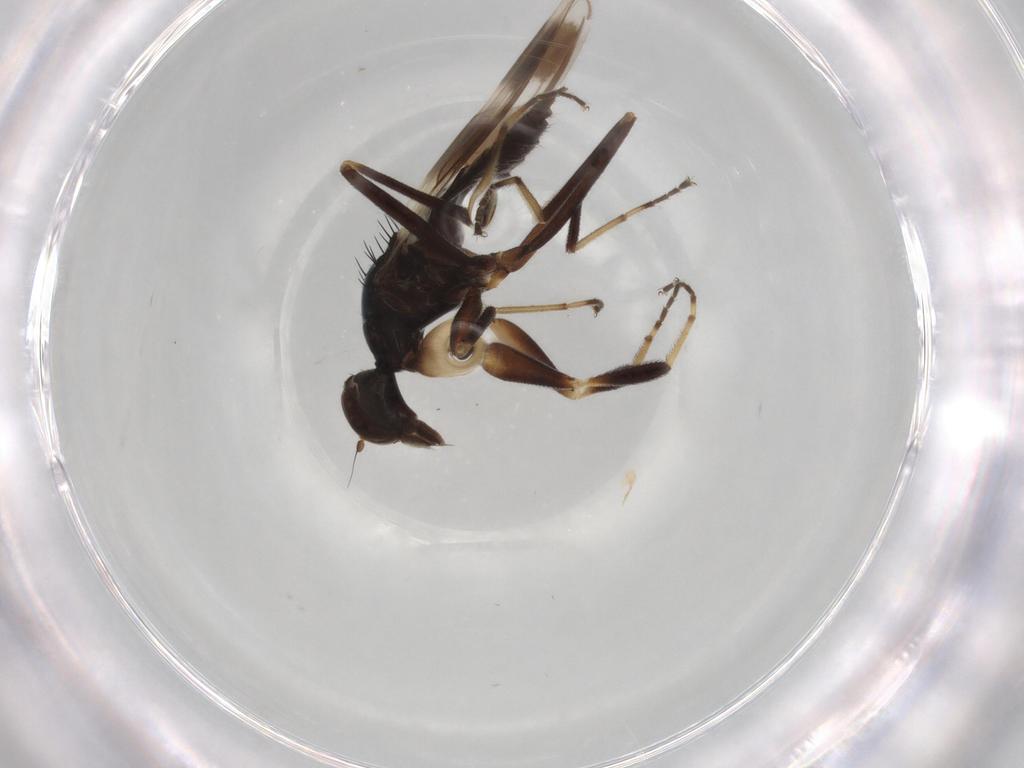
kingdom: Animalia
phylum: Arthropoda
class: Insecta
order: Diptera
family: Hybotidae
